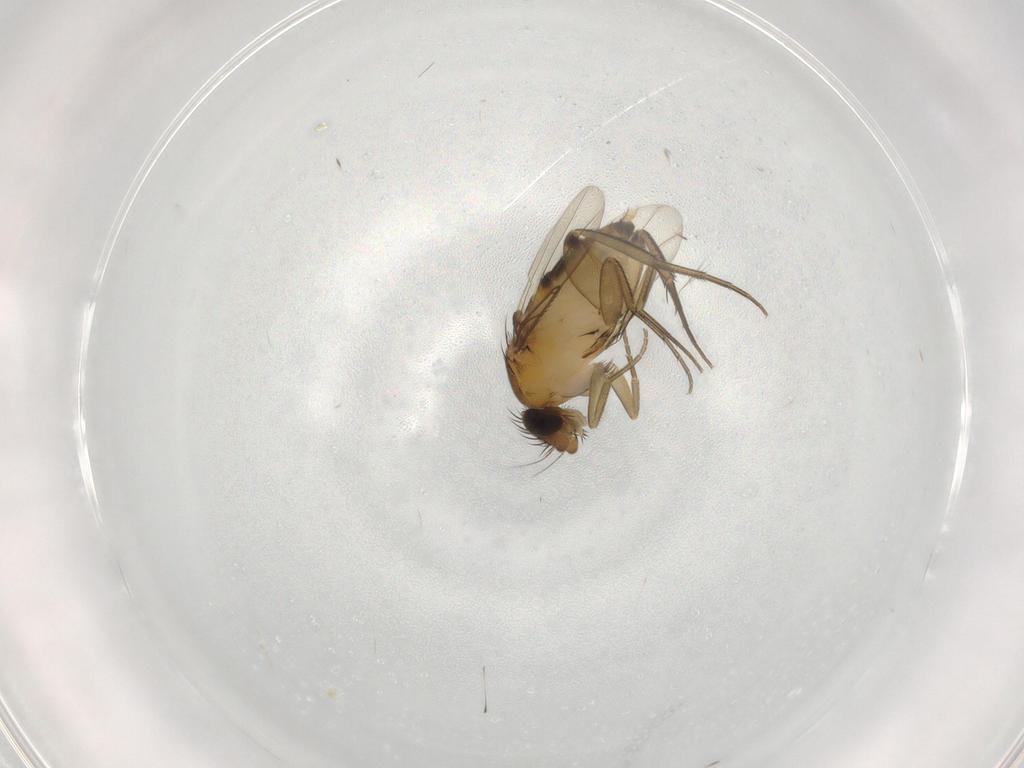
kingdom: Animalia
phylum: Arthropoda
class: Insecta
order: Diptera
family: Phoridae
